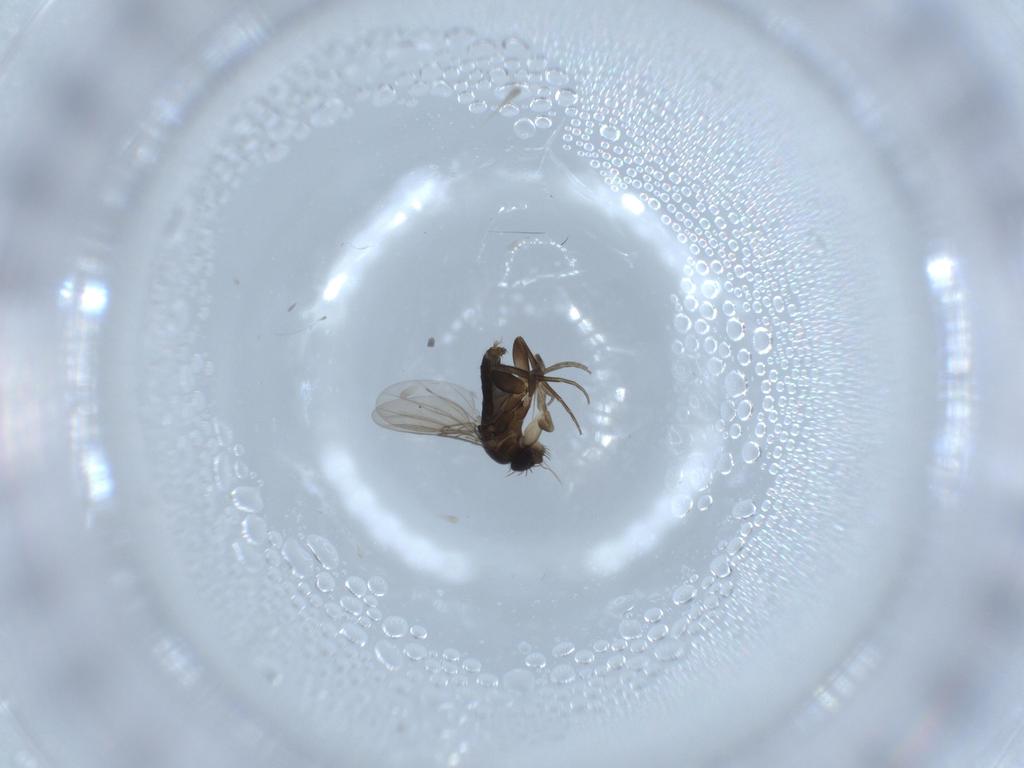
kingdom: Animalia
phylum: Arthropoda
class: Insecta
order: Diptera
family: Phoridae
